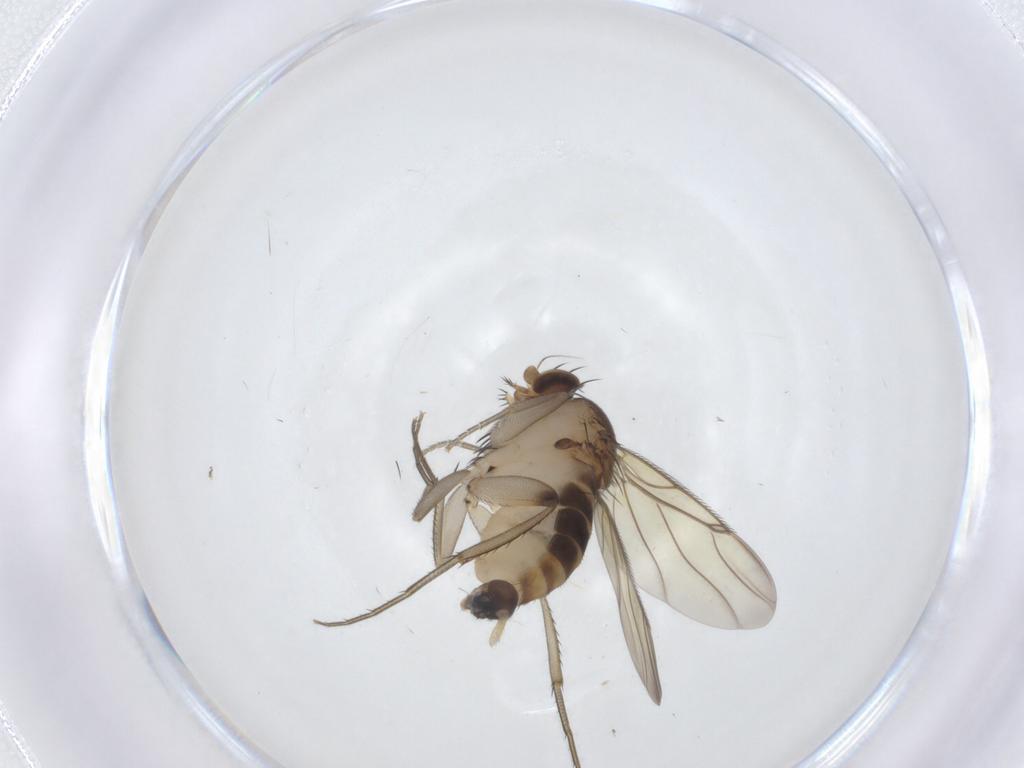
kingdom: Animalia
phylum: Arthropoda
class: Insecta
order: Diptera
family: Phoridae
